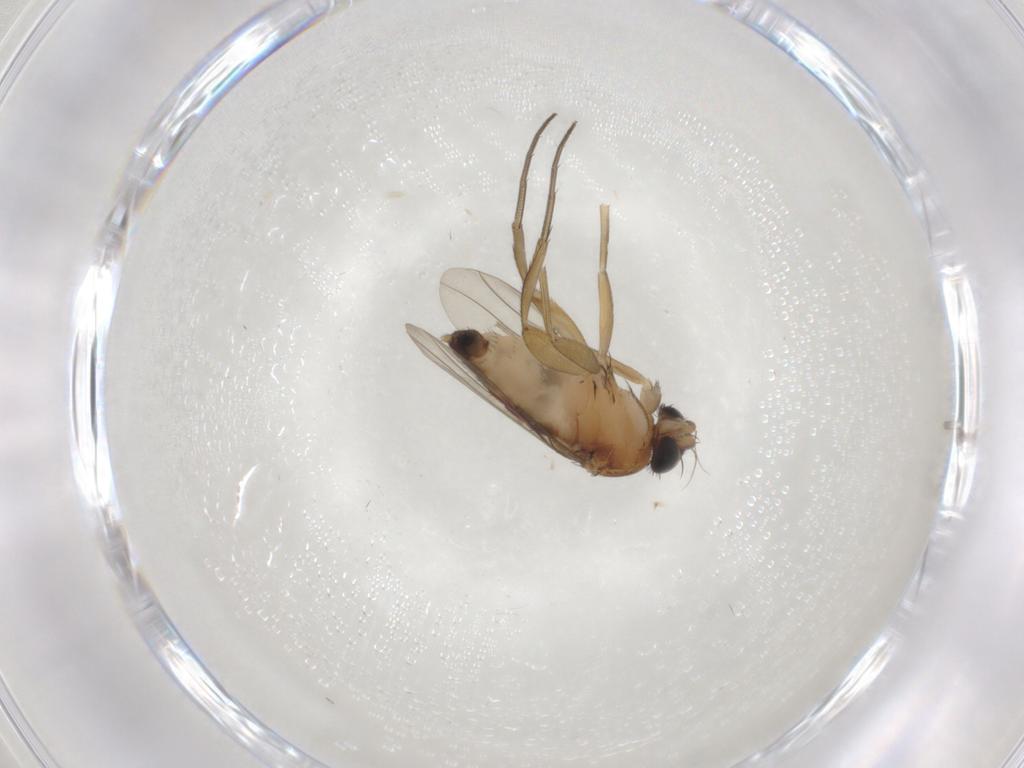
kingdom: Animalia
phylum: Arthropoda
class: Insecta
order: Diptera
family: Phoridae
